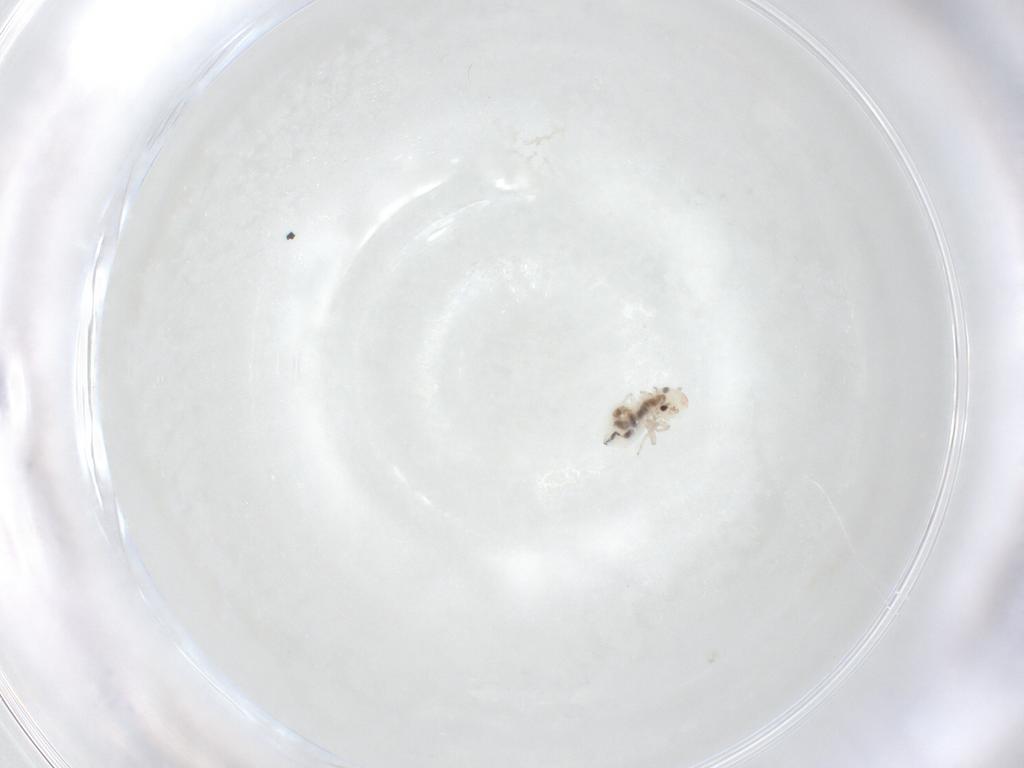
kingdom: Animalia
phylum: Arthropoda
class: Insecta
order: Psocodea
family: Caeciliusidae
